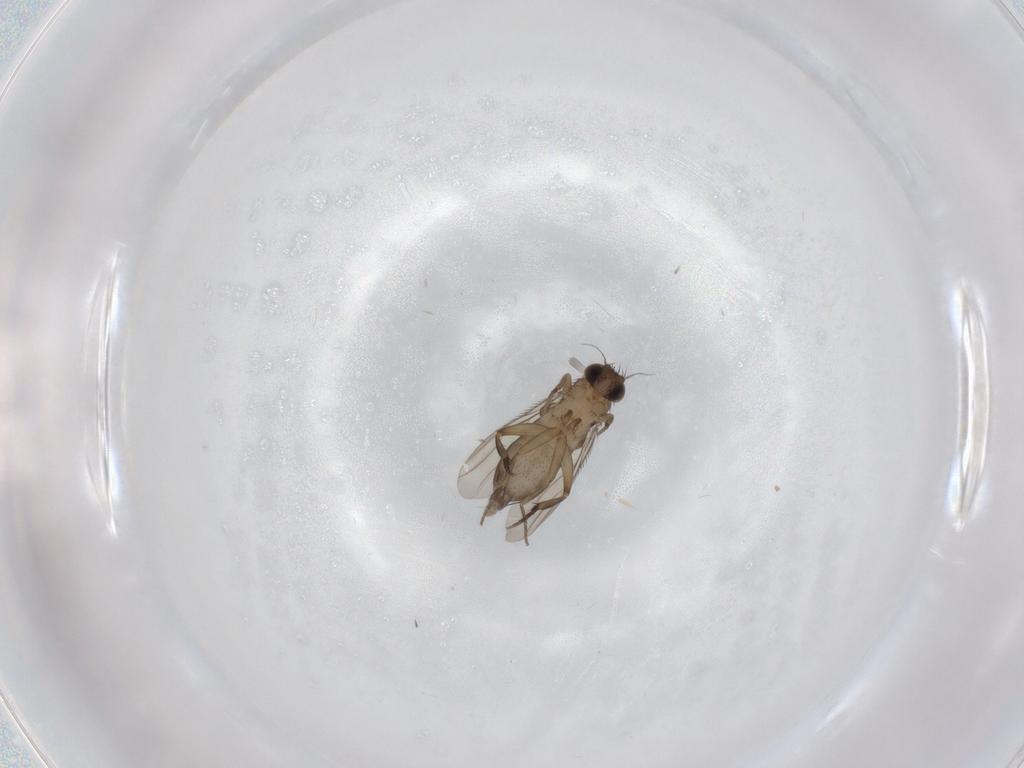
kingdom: Animalia
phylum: Arthropoda
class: Insecta
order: Diptera
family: Phoridae
